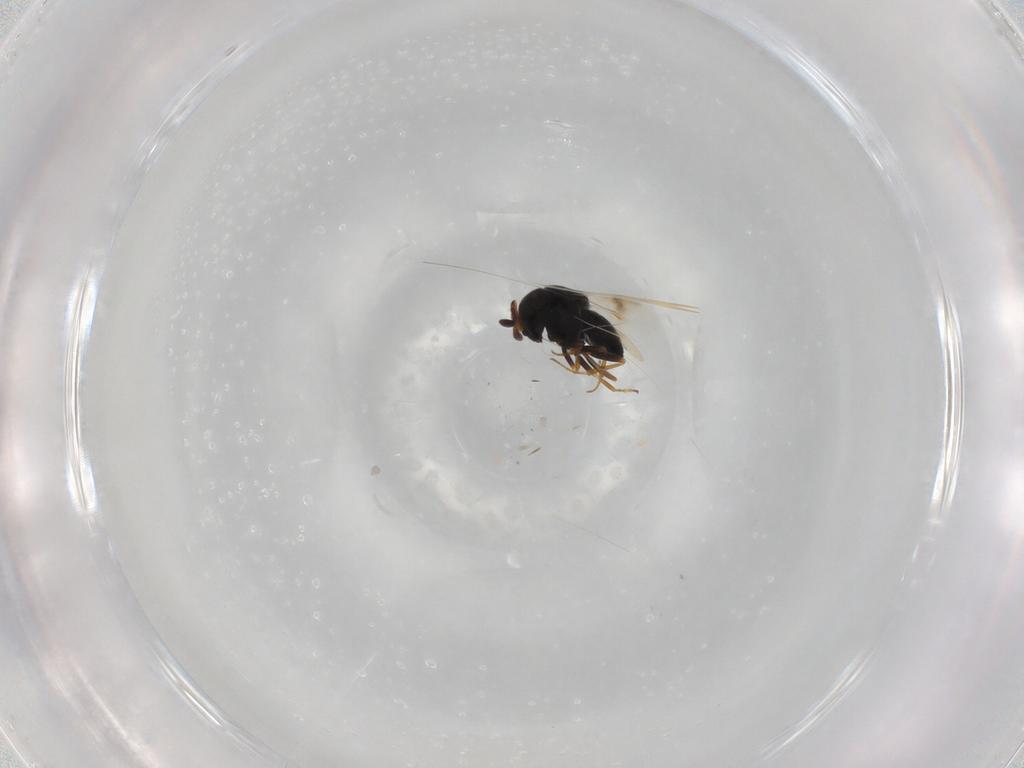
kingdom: Animalia
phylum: Arthropoda
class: Insecta
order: Hymenoptera
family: Scelionidae
